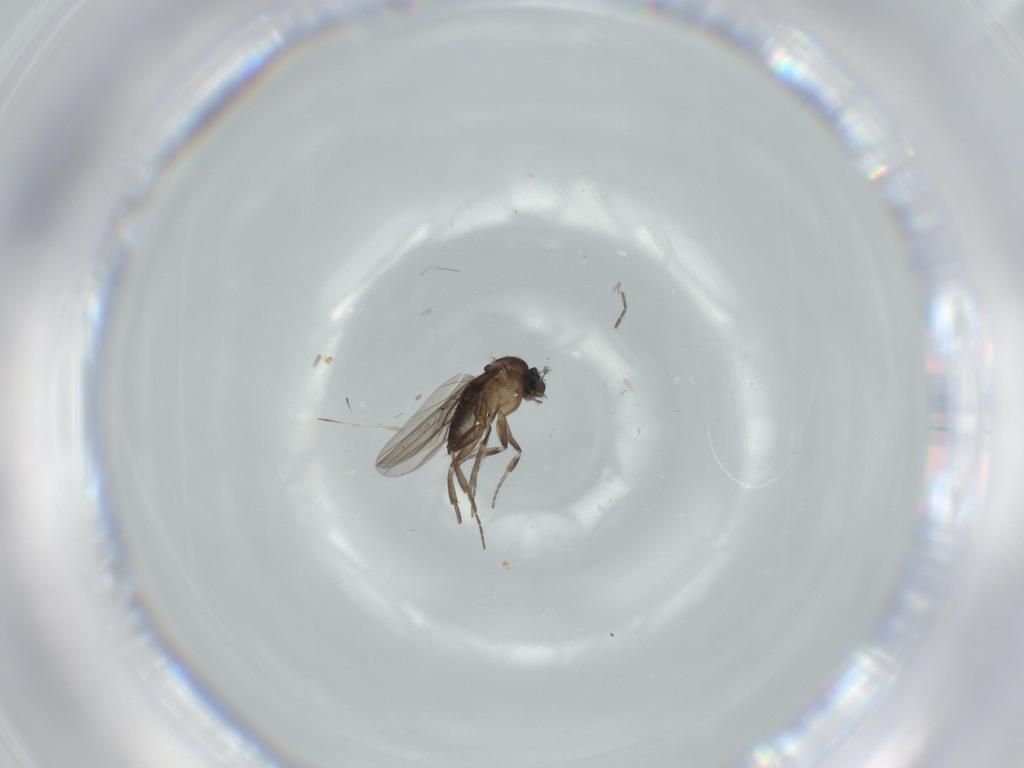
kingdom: Animalia
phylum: Arthropoda
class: Insecta
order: Diptera
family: Phoridae
